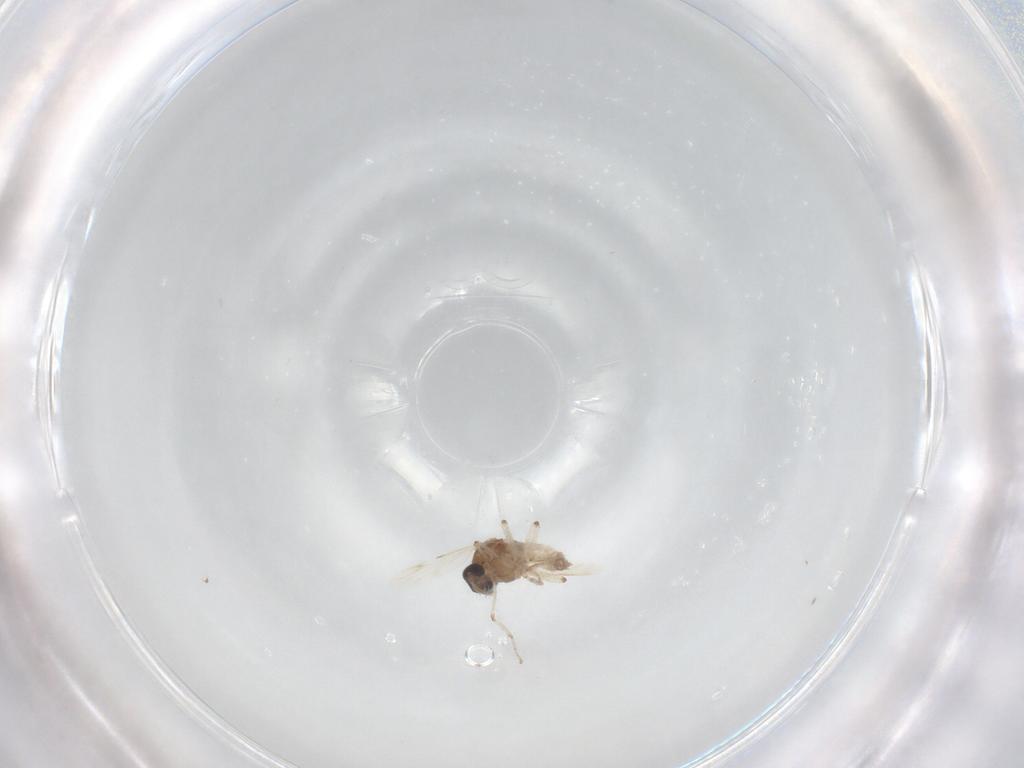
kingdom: Animalia
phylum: Arthropoda
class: Insecta
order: Diptera
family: Ceratopogonidae
